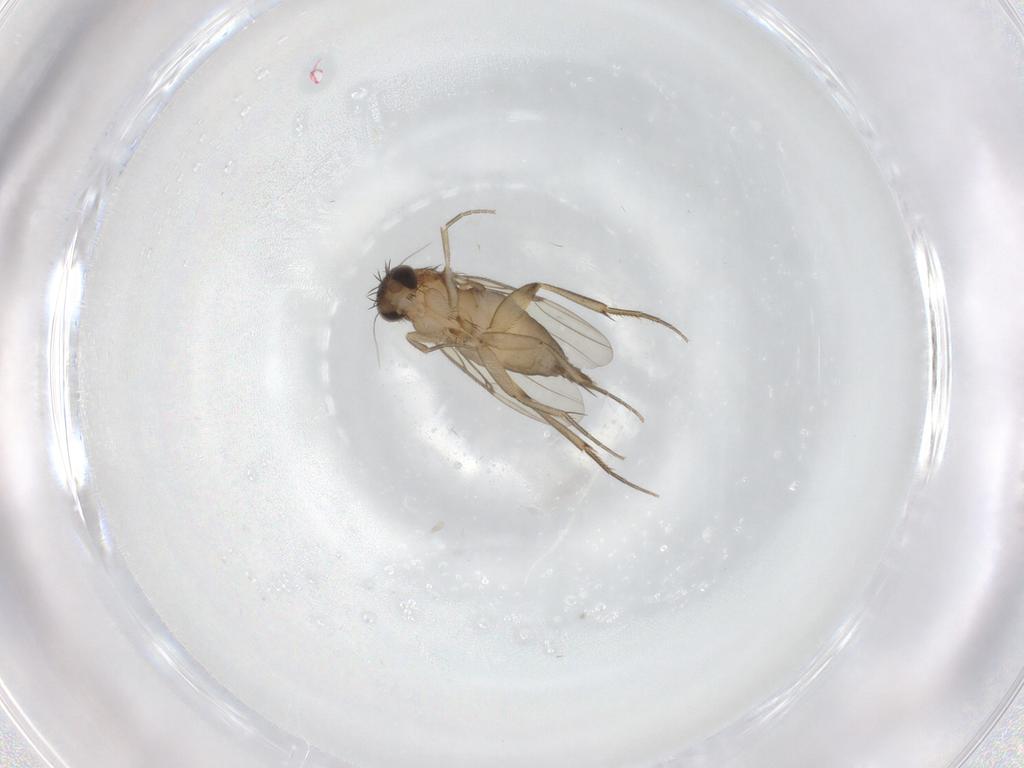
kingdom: Animalia
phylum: Arthropoda
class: Insecta
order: Diptera
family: Phoridae
